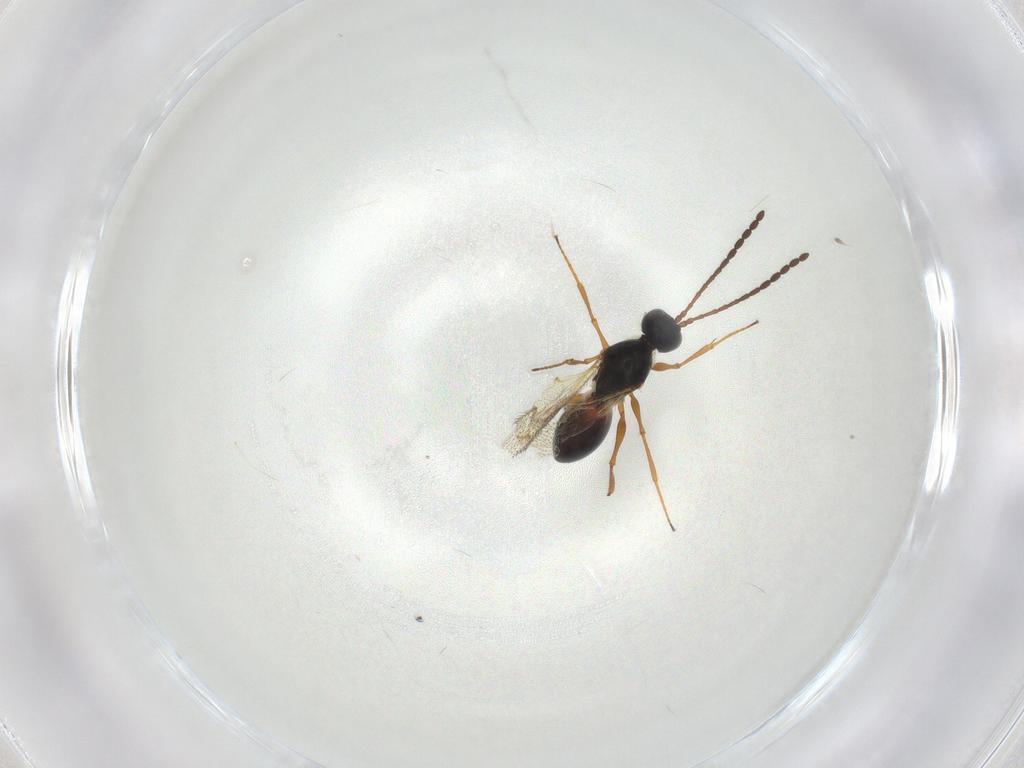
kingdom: Animalia
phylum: Arthropoda
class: Insecta
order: Hymenoptera
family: Figitidae
